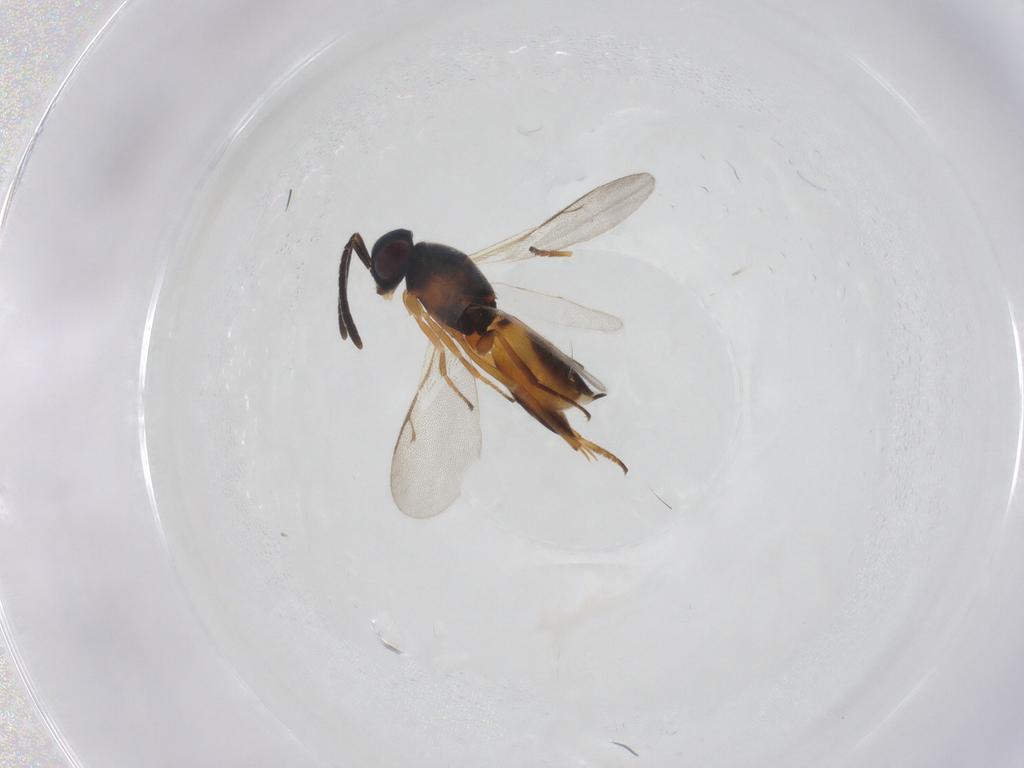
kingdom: Animalia
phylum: Arthropoda
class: Insecta
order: Hymenoptera
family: Encyrtidae
